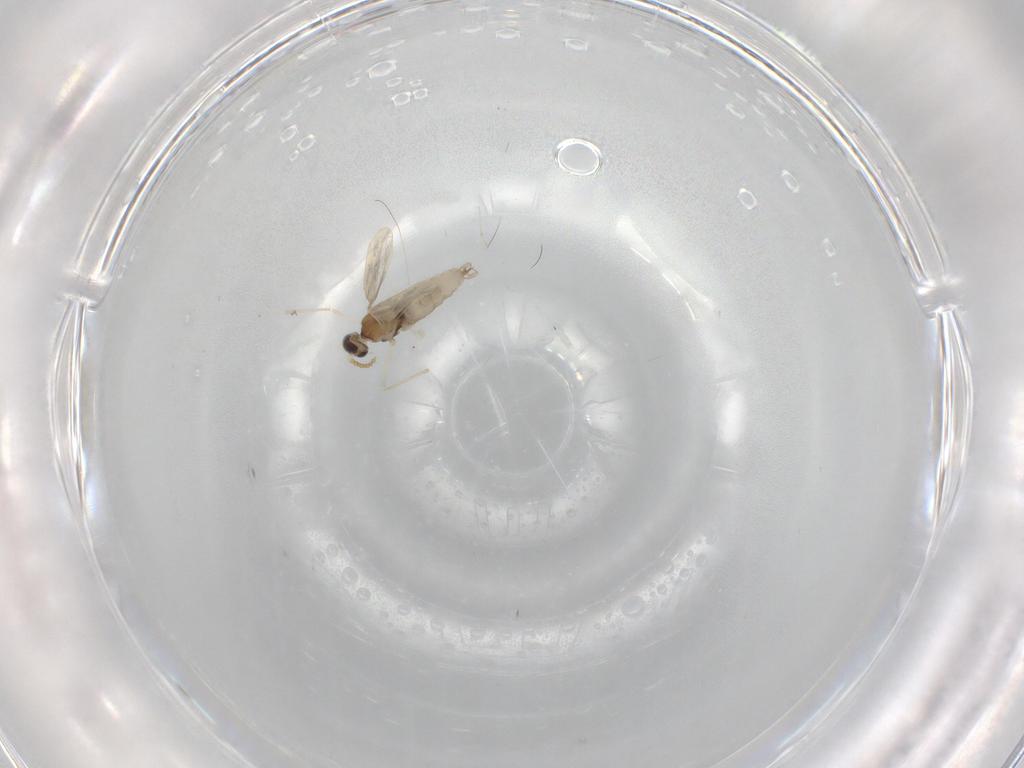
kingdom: Animalia
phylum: Arthropoda
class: Insecta
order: Diptera
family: Cecidomyiidae
